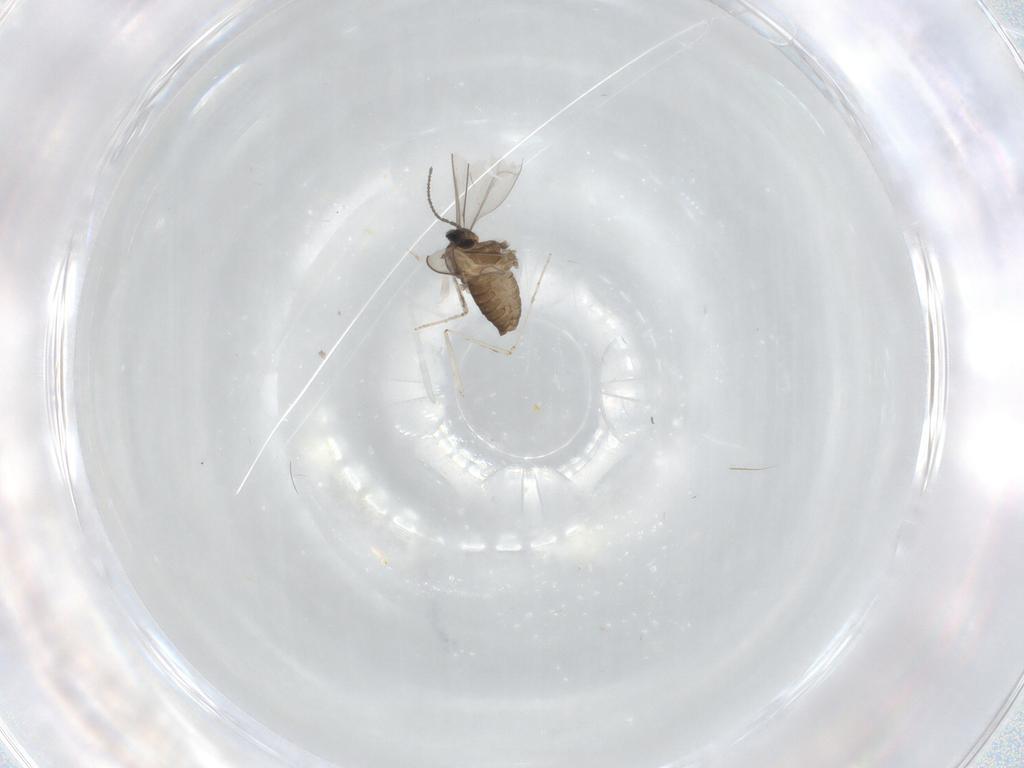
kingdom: Animalia
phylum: Arthropoda
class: Insecta
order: Diptera
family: Cecidomyiidae
